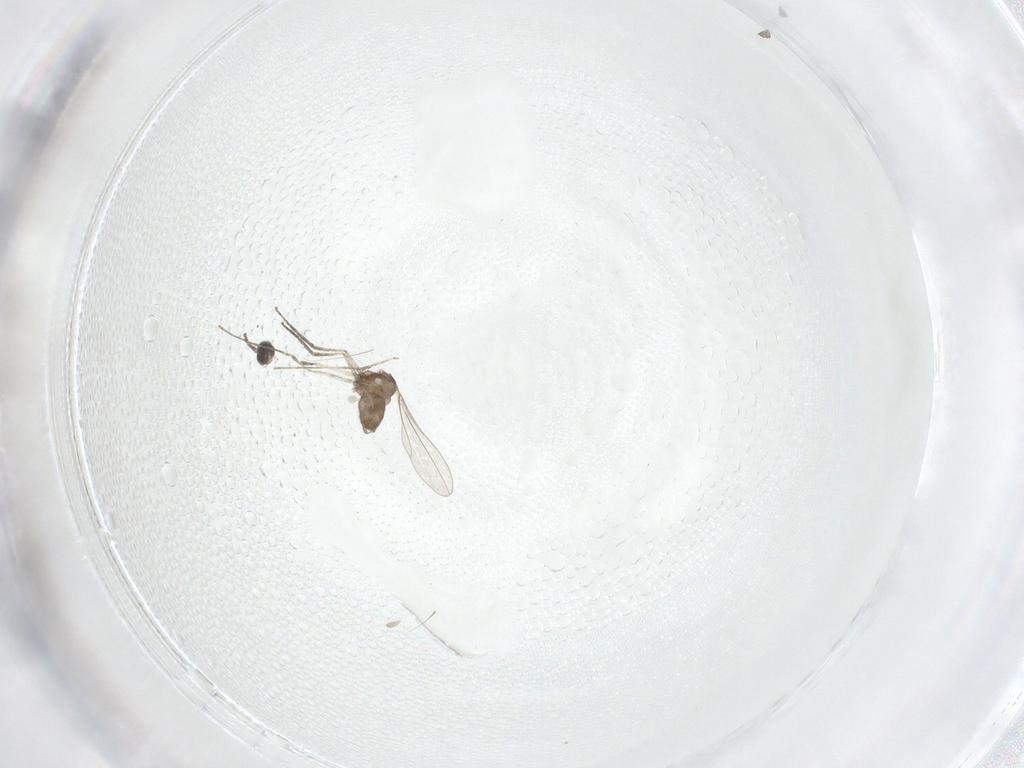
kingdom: Animalia
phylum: Arthropoda
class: Insecta
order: Diptera
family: Cecidomyiidae
